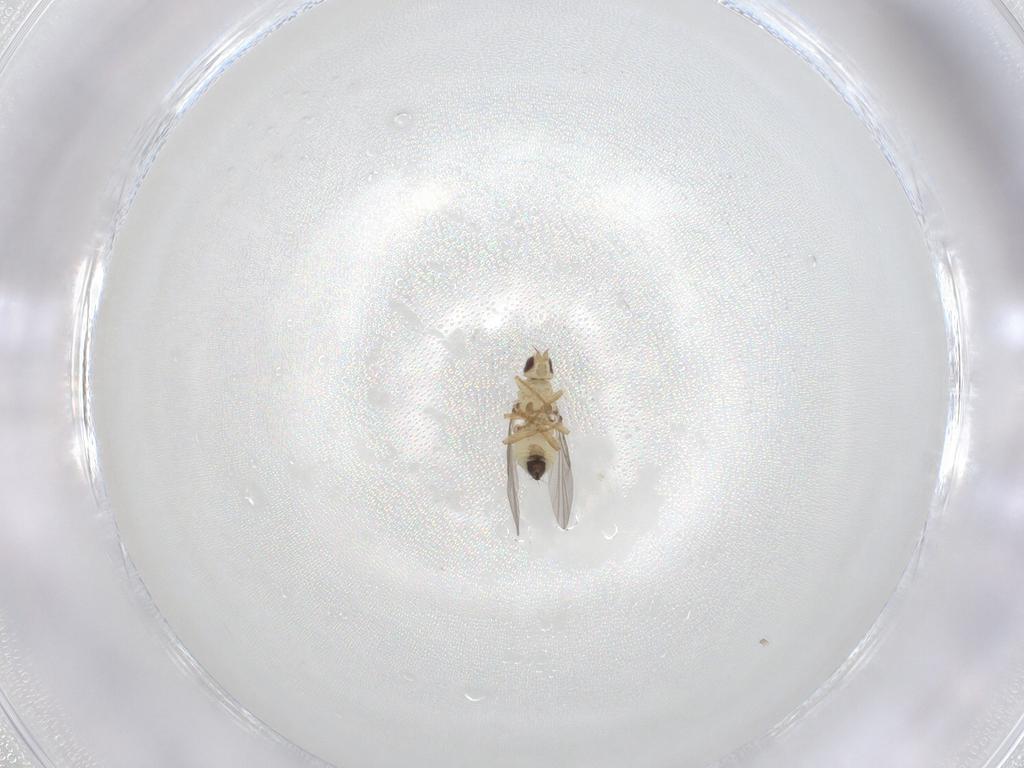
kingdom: Animalia
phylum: Arthropoda
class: Insecta
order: Diptera
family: Agromyzidae
